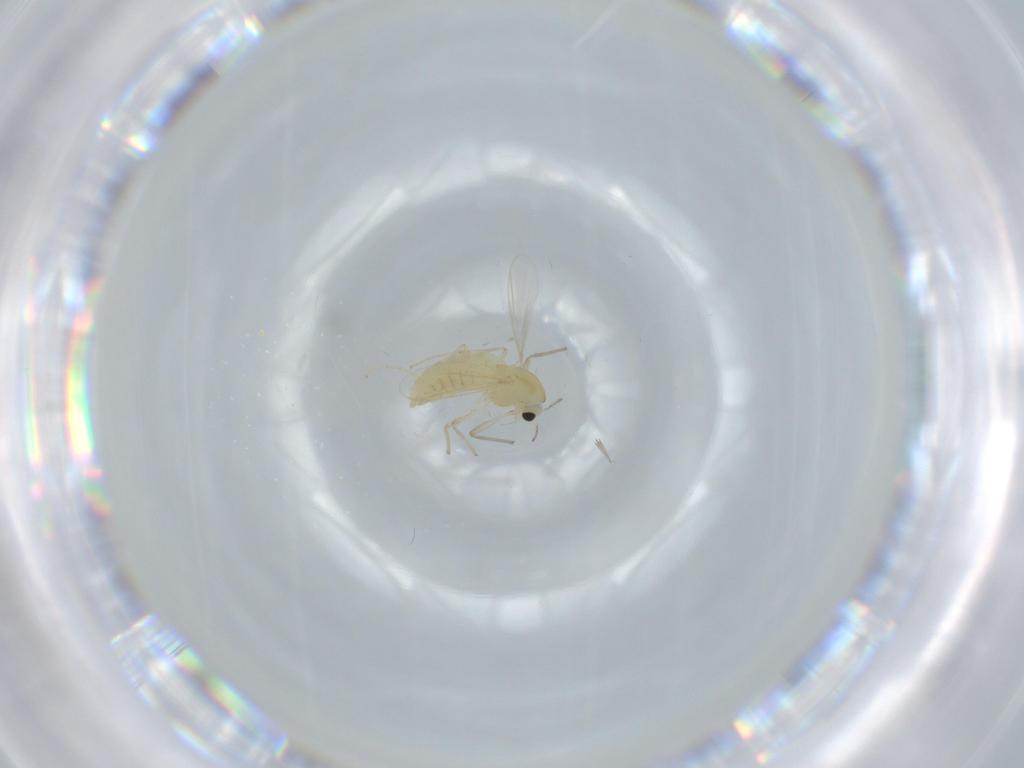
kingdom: Animalia
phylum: Arthropoda
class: Insecta
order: Diptera
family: Chironomidae
